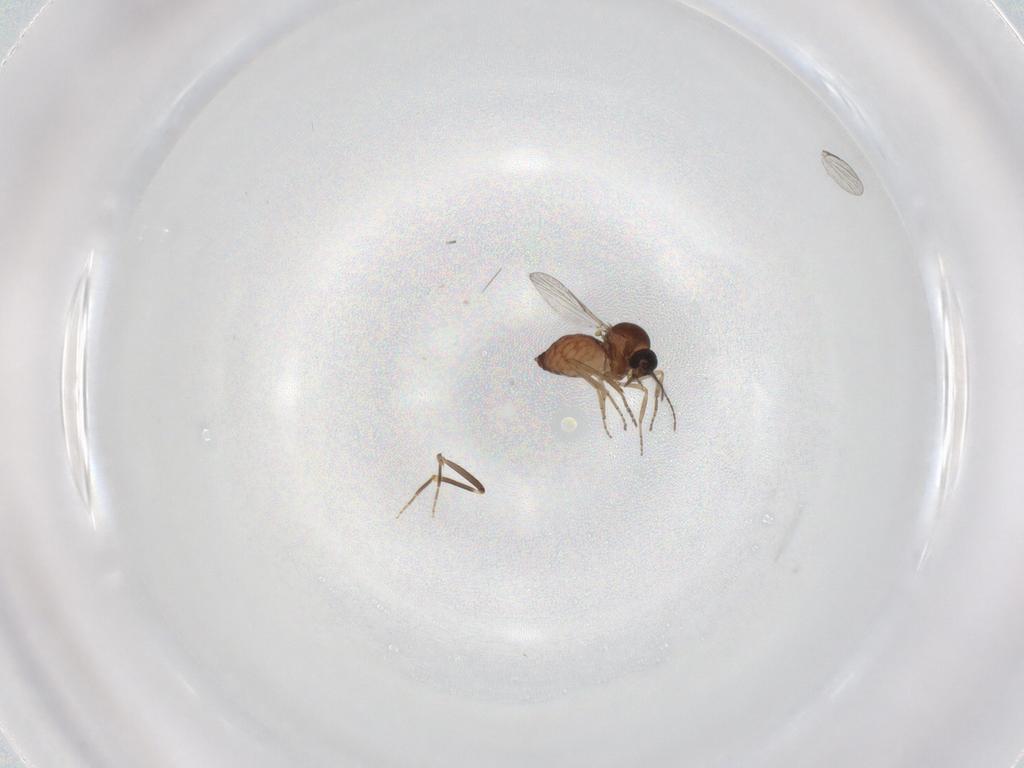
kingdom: Animalia
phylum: Arthropoda
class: Insecta
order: Diptera
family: Ceratopogonidae
